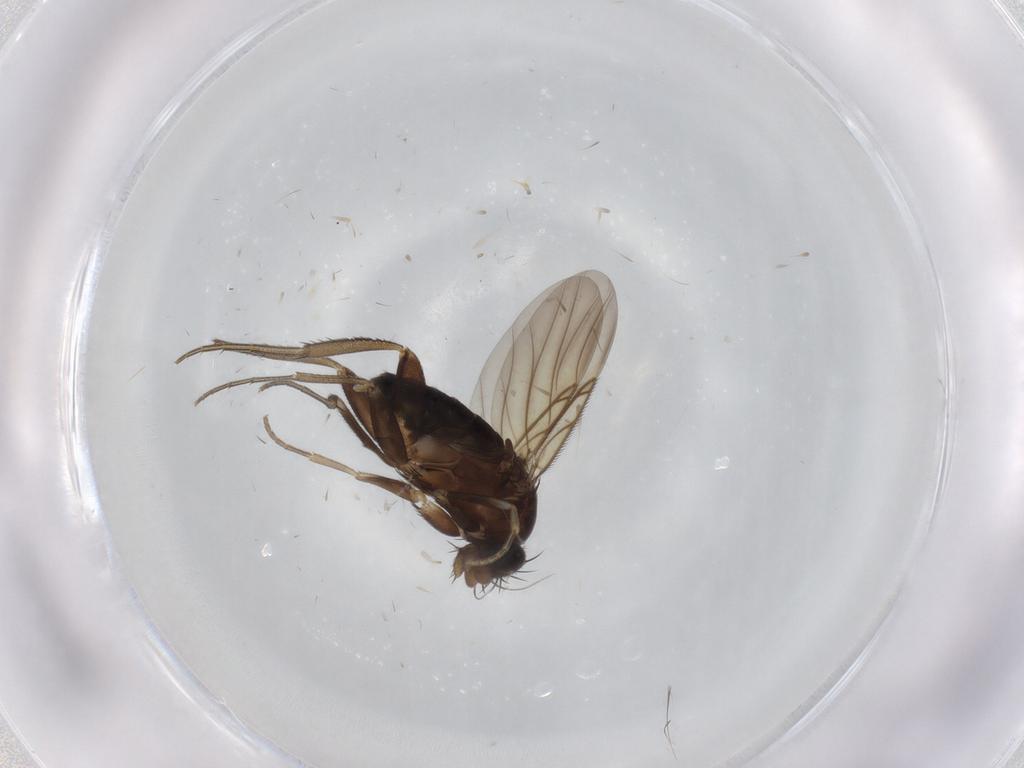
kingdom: Animalia
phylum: Arthropoda
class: Insecta
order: Diptera
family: Phoridae
